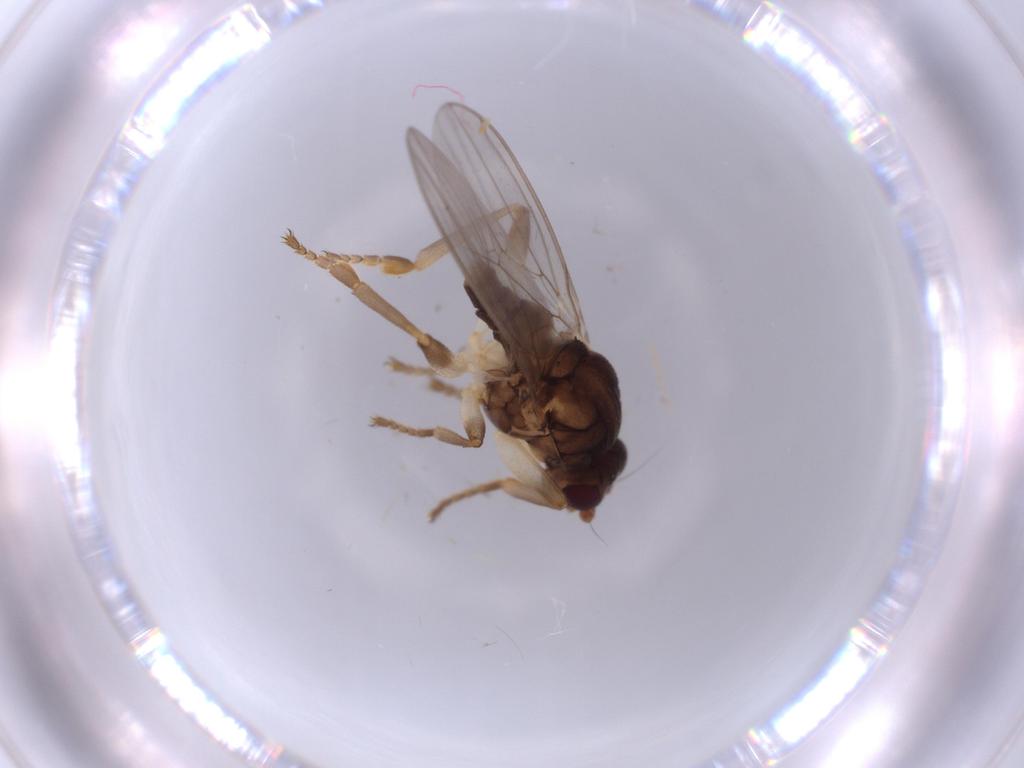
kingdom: Animalia
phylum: Arthropoda
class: Insecta
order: Diptera
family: Sphaeroceridae
